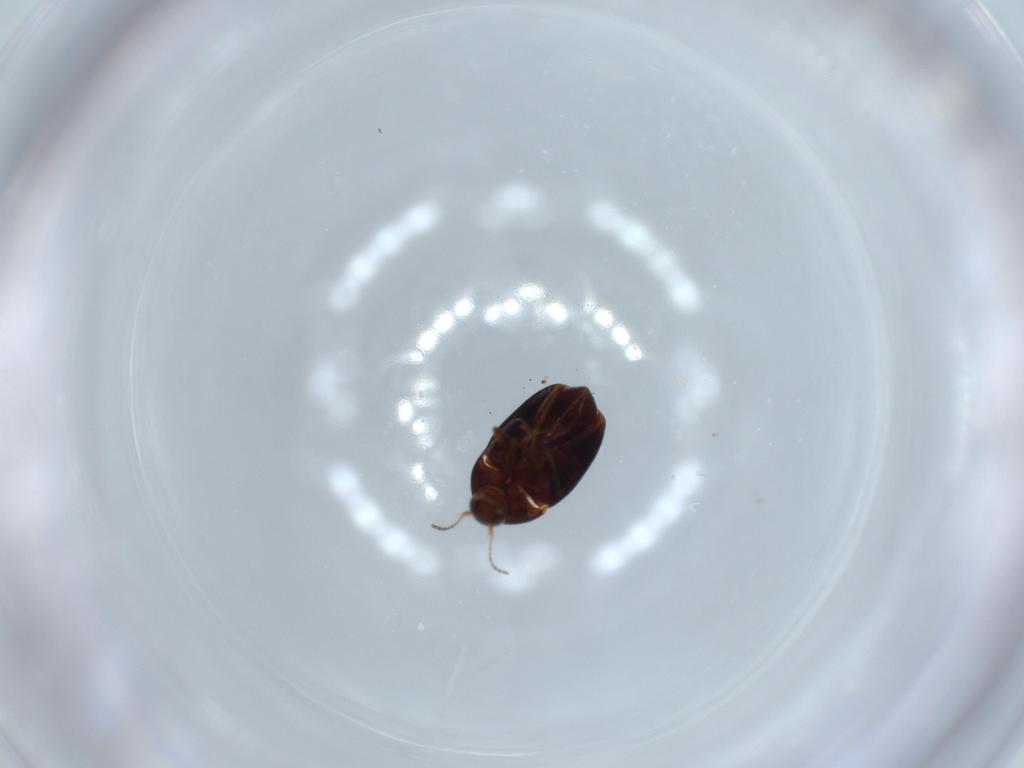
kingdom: Animalia
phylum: Arthropoda
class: Insecta
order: Coleoptera
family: Staphylinidae
